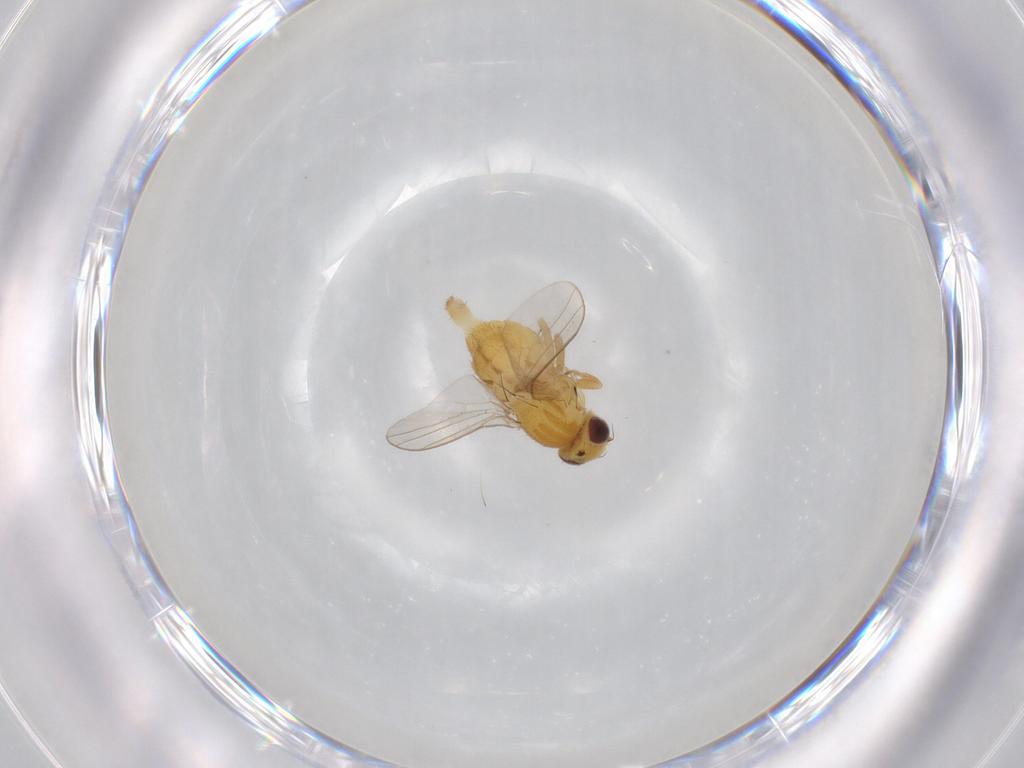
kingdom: Animalia
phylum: Arthropoda
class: Insecta
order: Diptera
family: Chloropidae
